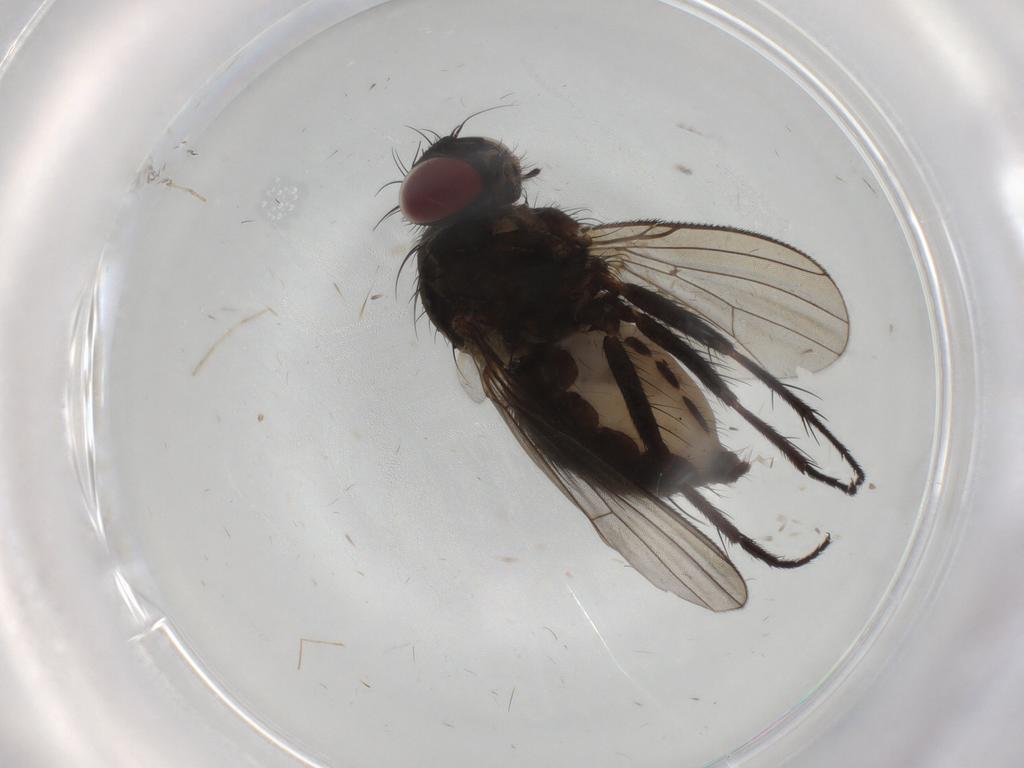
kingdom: Animalia
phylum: Arthropoda
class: Insecta
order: Diptera
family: Muscidae
